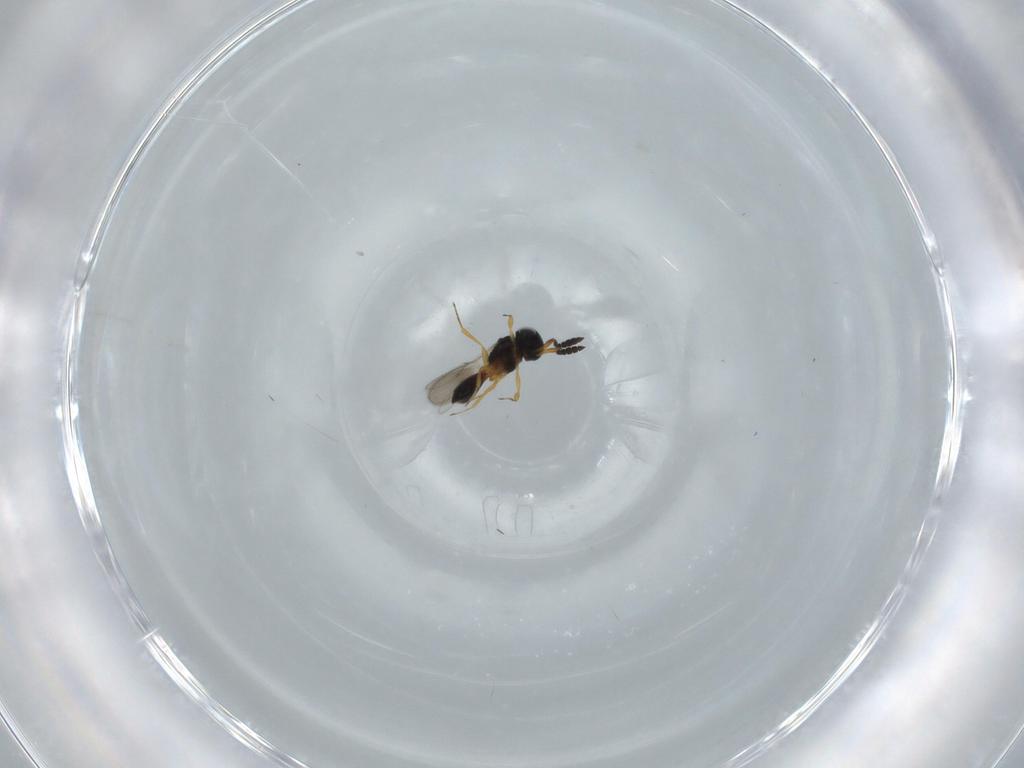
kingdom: Animalia
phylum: Arthropoda
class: Insecta
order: Hymenoptera
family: Scelionidae
